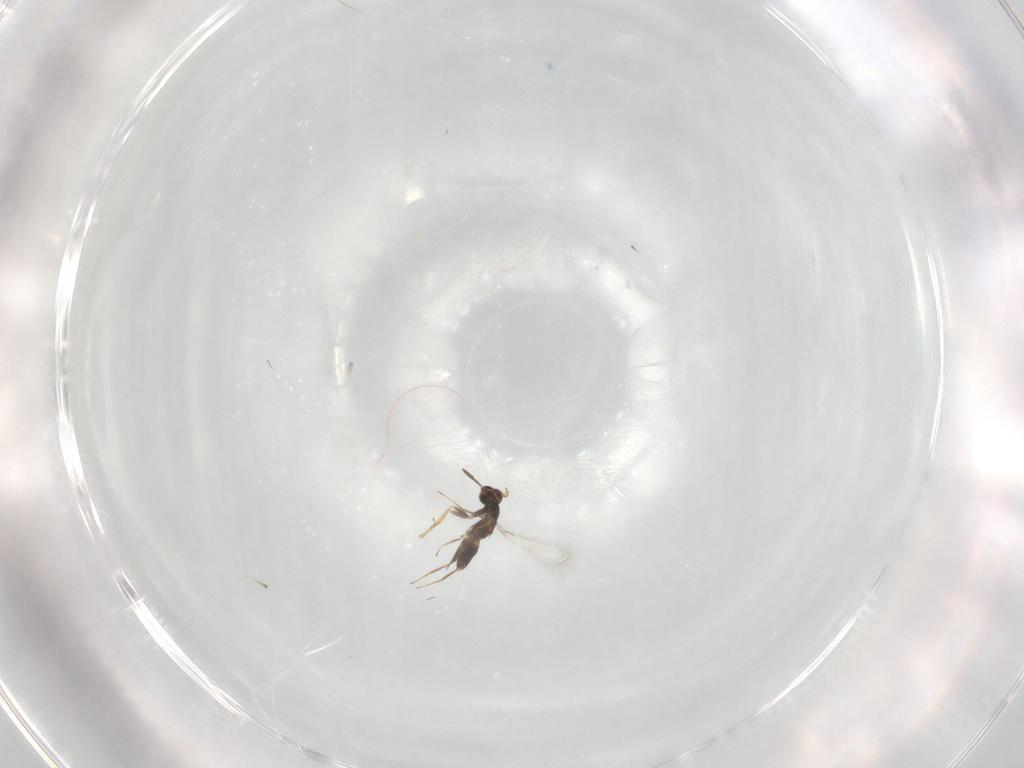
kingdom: Animalia
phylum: Arthropoda
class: Insecta
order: Hymenoptera
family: Mymaridae
